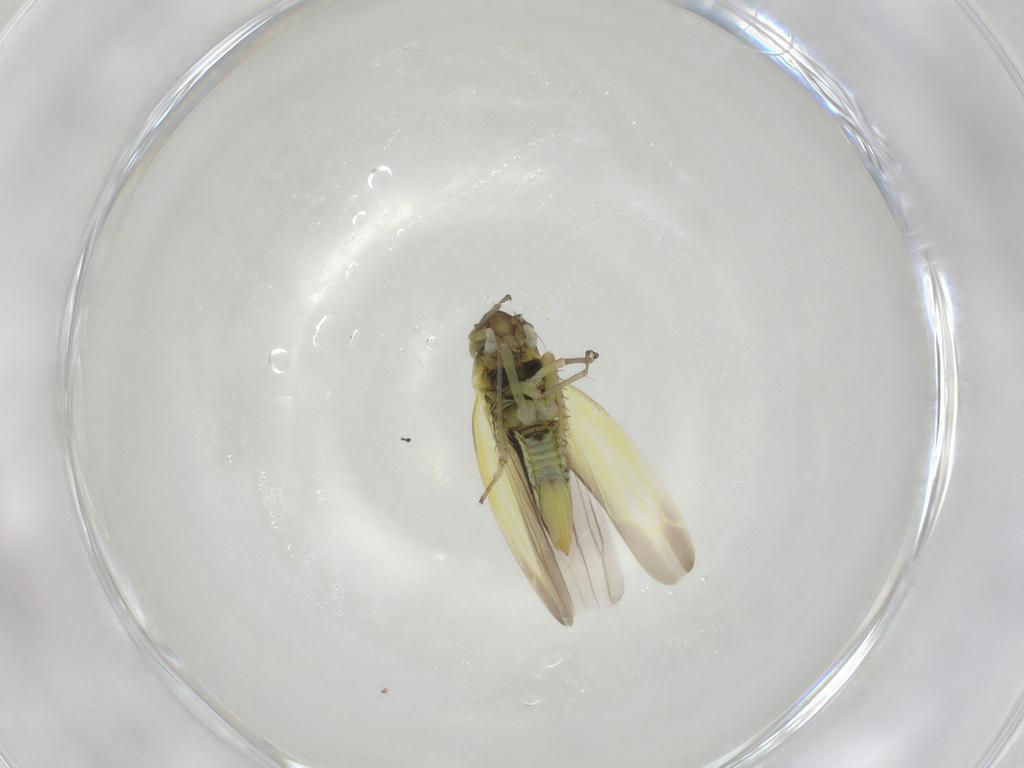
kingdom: Animalia
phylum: Arthropoda
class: Insecta
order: Hemiptera
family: Cicadellidae
